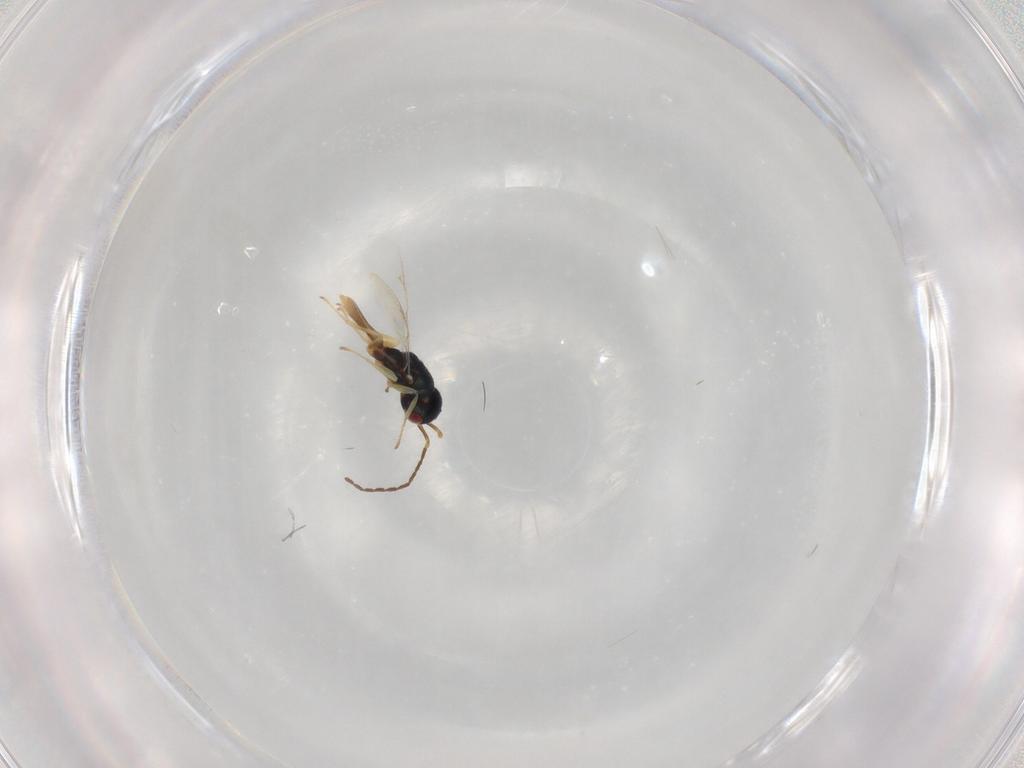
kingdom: Animalia
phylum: Arthropoda
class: Insecta
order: Hymenoptera
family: Pteromalidae
